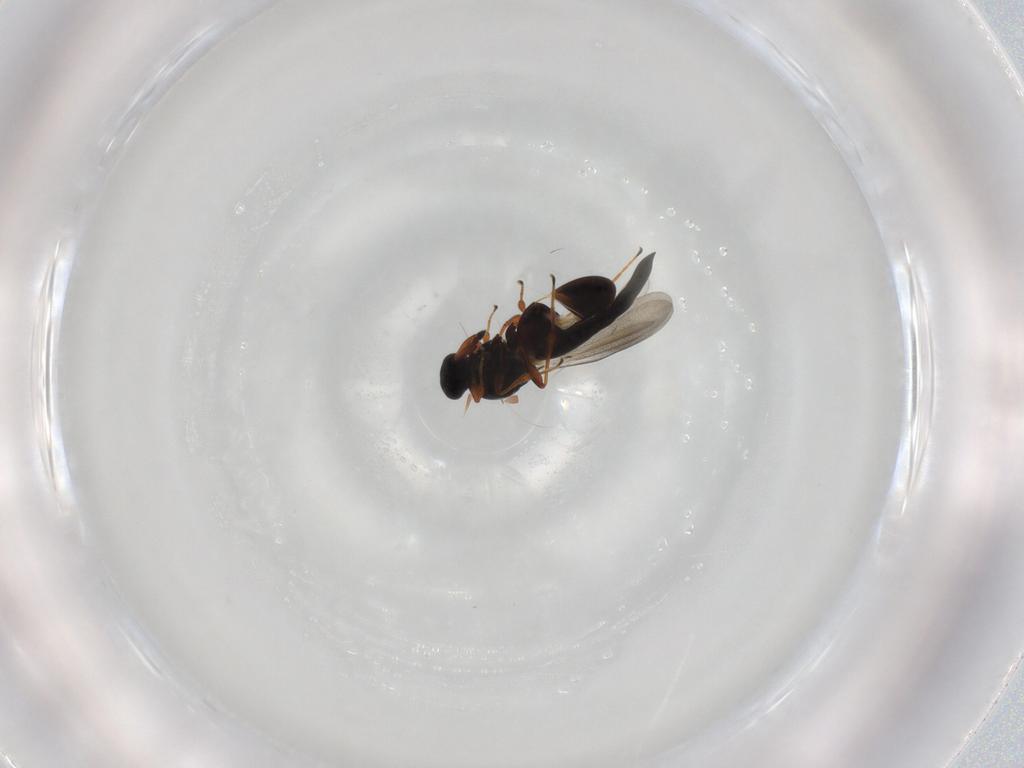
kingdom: Animalia
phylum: Arthropoda
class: Insecta
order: Hymenoptera
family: Platygastridae
